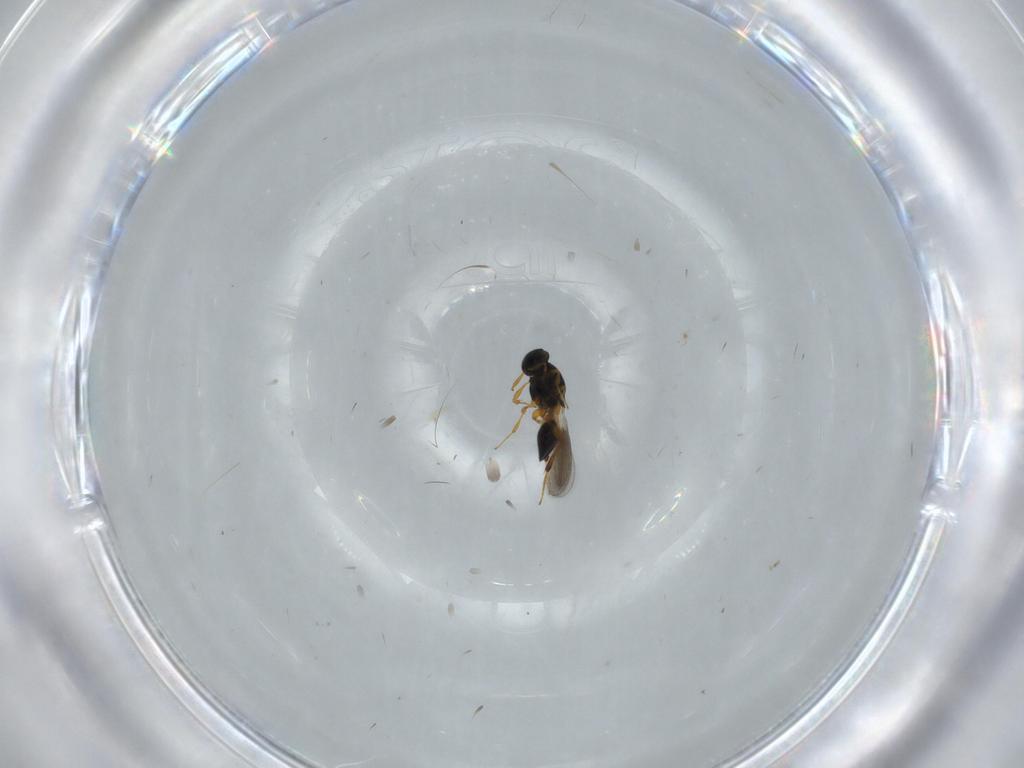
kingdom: Animalia
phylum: Arthropoda
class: Insecta
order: Hymenoptera
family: Platygastridae
